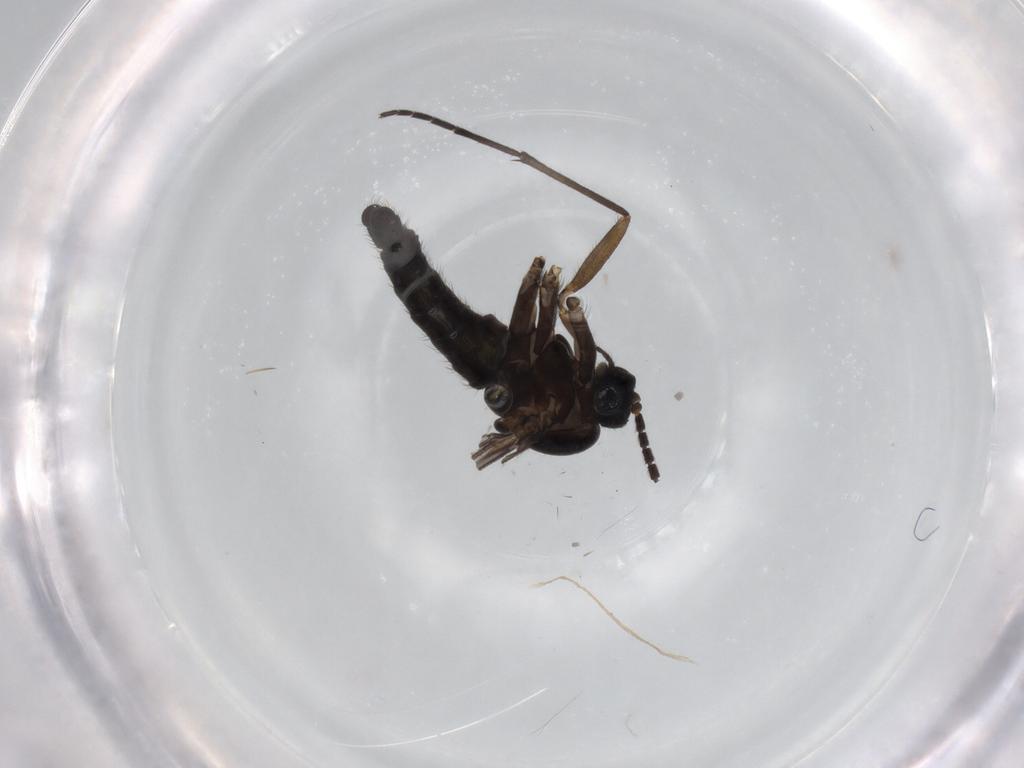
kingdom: Animalia
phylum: Arthropoda
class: Insecta
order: Diptera
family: Sciaridae
